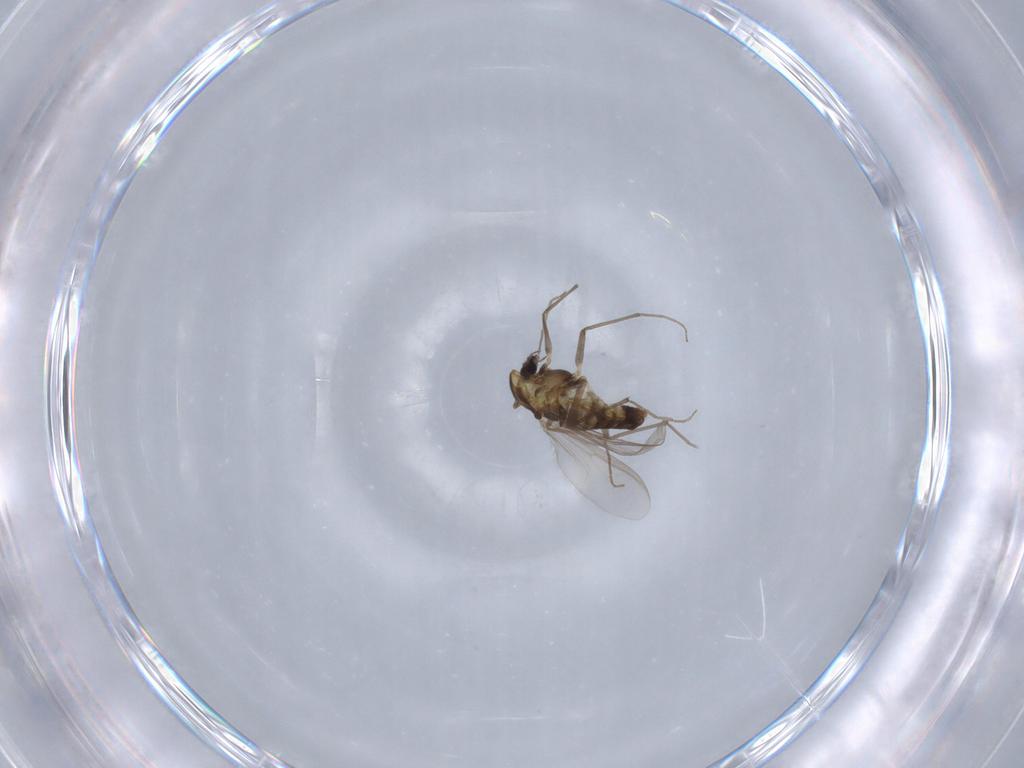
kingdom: Animalia
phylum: Arthropoda
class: Insecta
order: Diptera
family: Chironomidae
